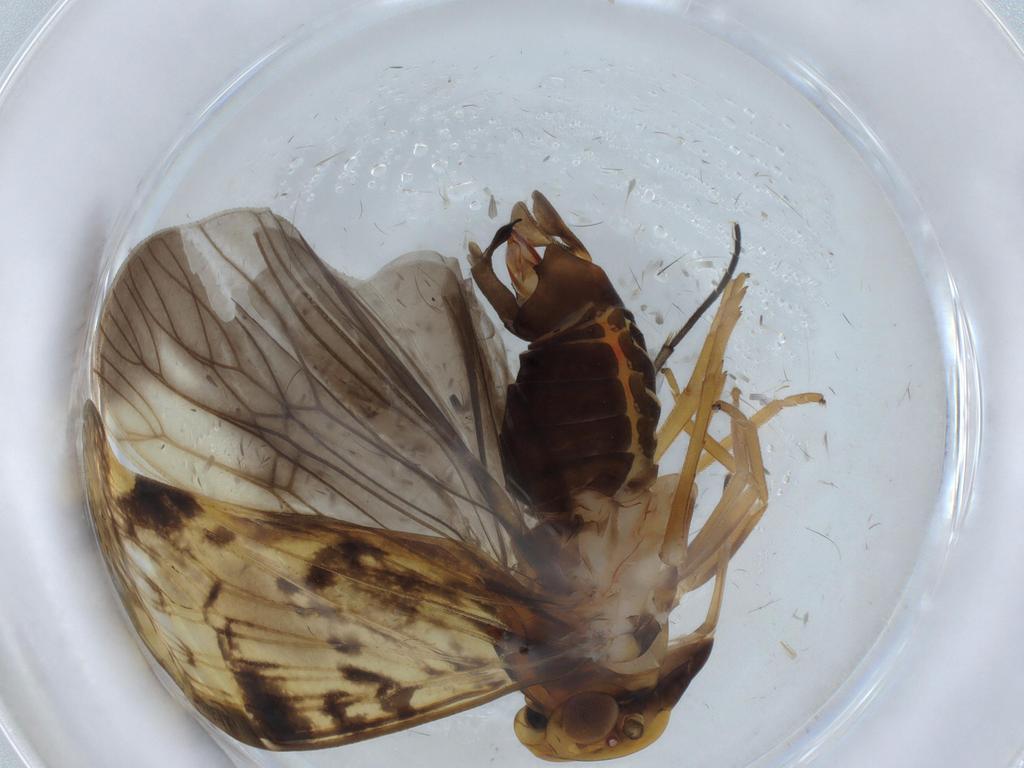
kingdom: Animalia
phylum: Arthropoda
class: Insecta
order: Hemiptera
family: Cixiidae
